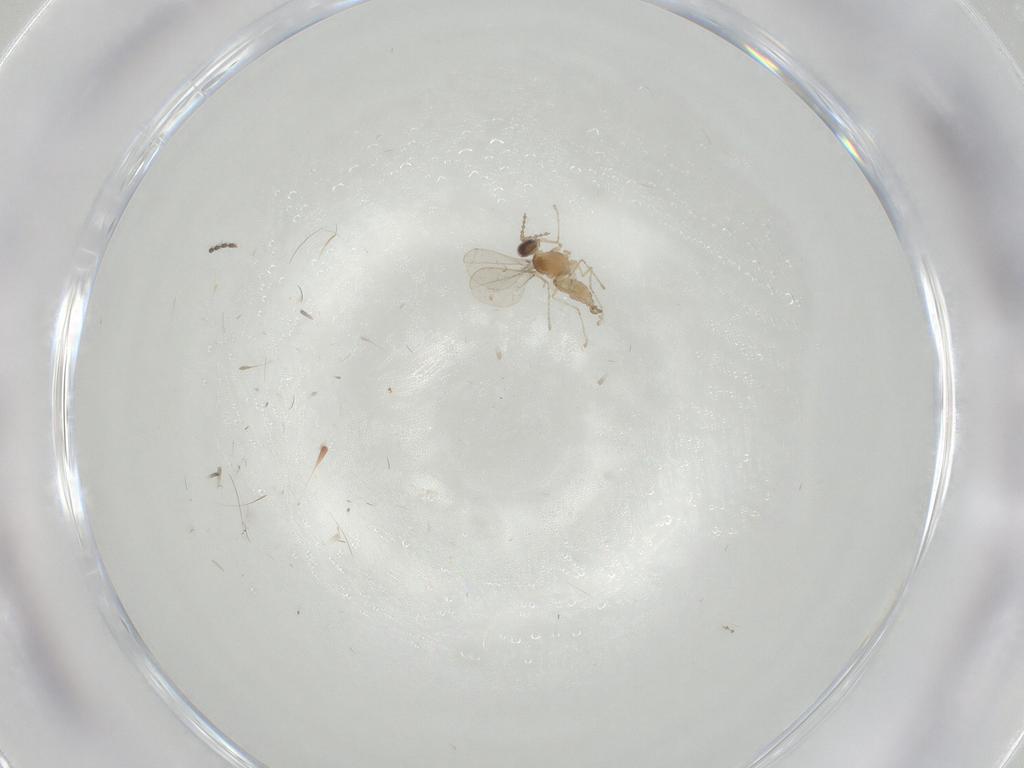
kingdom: Animalia
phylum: Arthropoda
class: Insecta
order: Diptera
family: Cecidomyiidae
